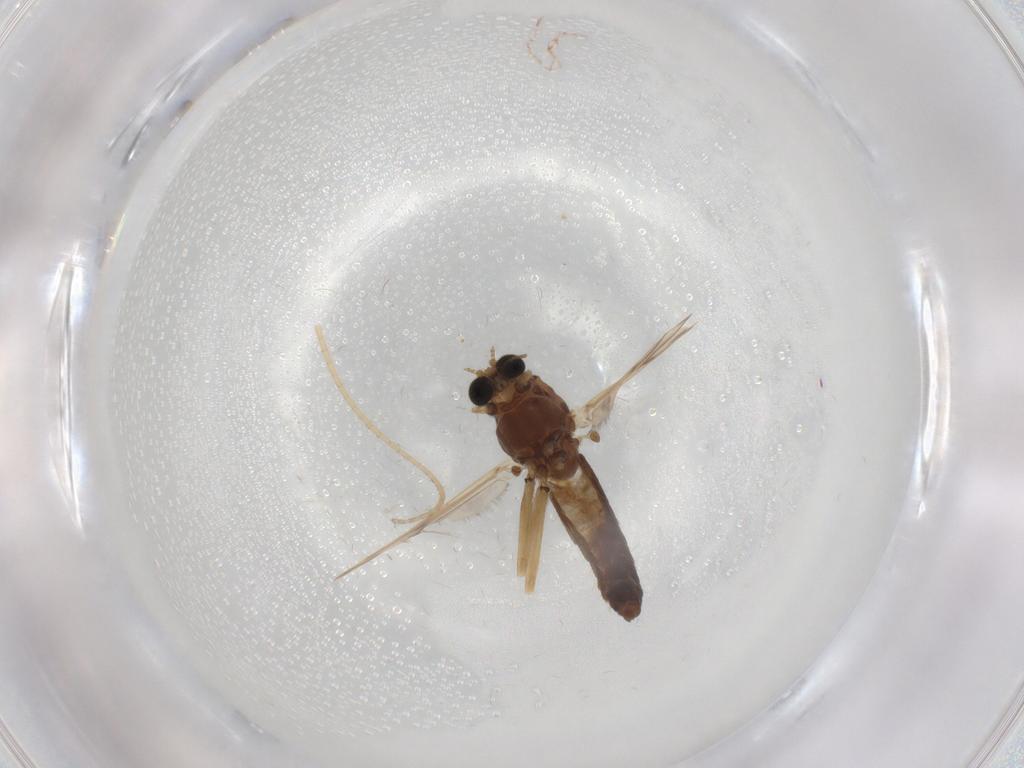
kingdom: Animalia
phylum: Arthropoda
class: Insecta
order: Diptera
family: Chironomidae
